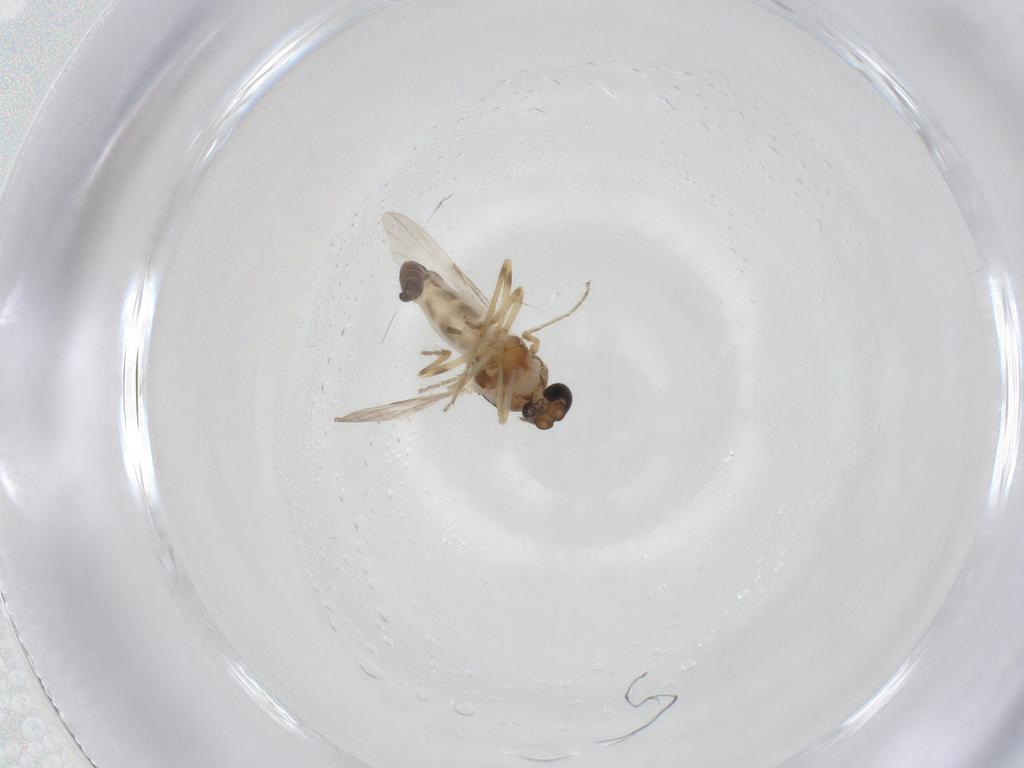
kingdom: Animalia
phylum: Arthropoda
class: Insecta
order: Diptera
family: Ceratopogonidae
